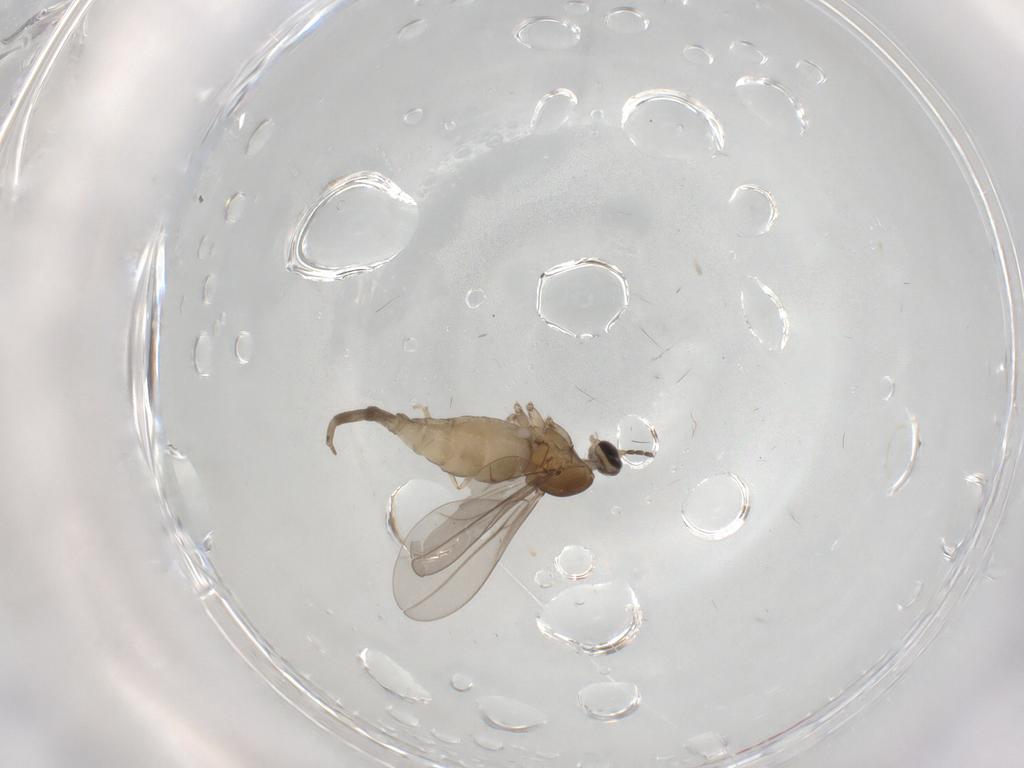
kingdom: Animalia
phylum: Arthropoda
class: Insecta
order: Diptera
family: Cecidomyiidae
